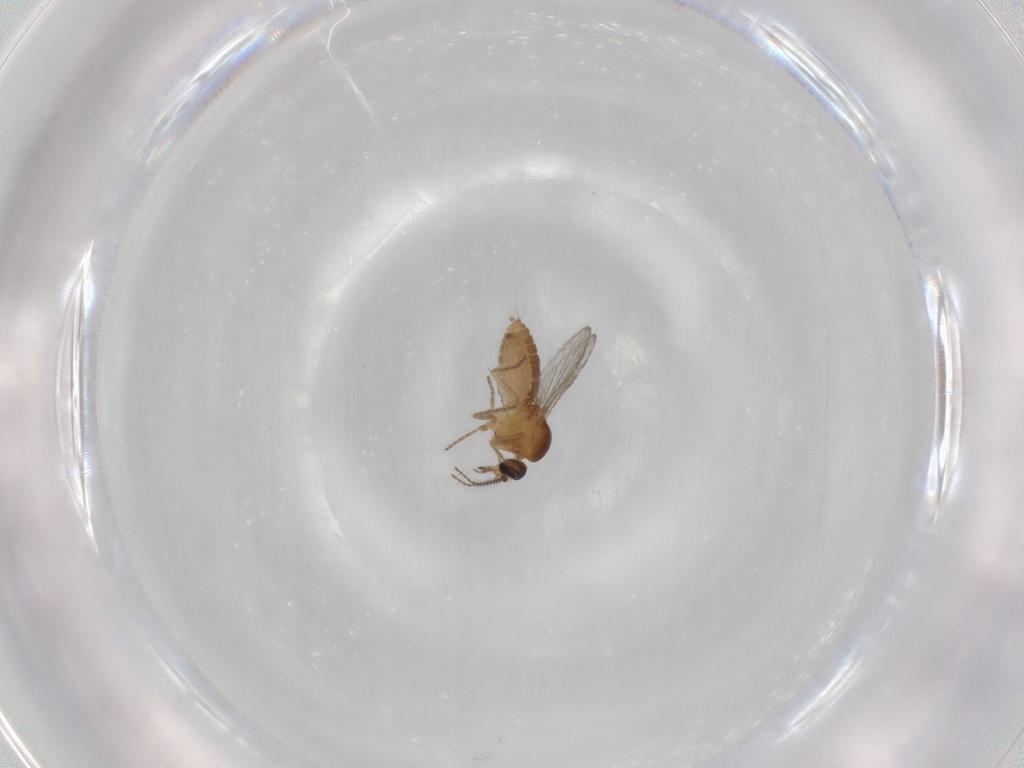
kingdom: Animalia
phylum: Arthropoda
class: Insecta
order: Diptera
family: Ceratopogonidae
